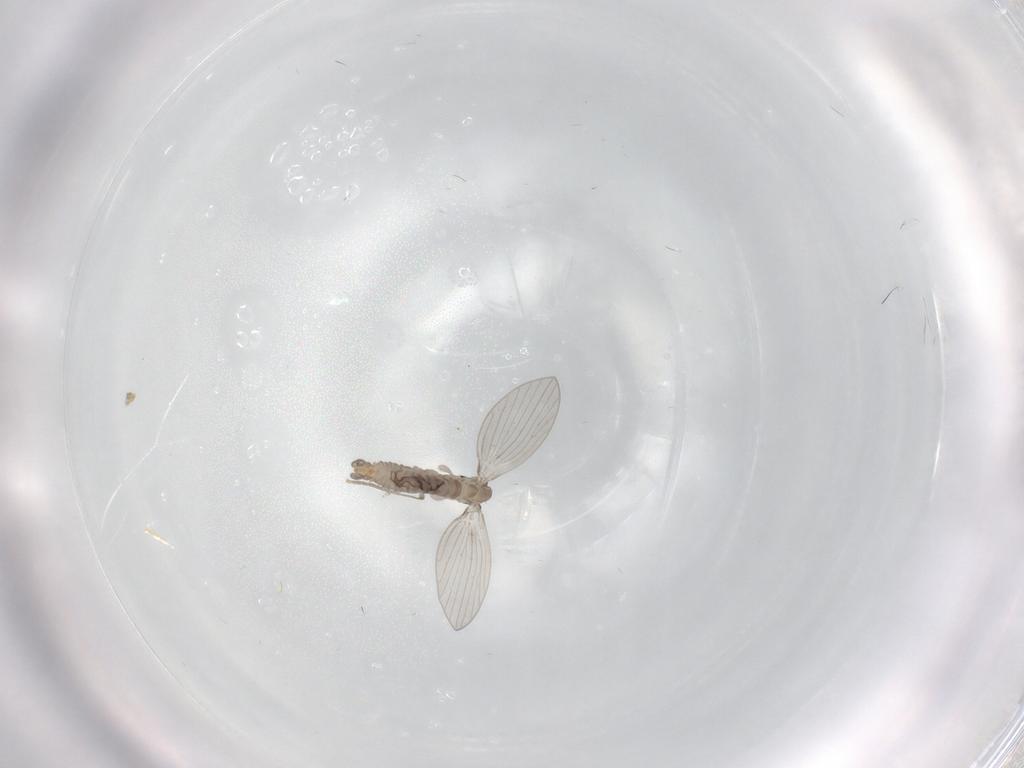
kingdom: Animalia
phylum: Arthropoda
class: Insecta
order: Diptera
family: Psychodidae
